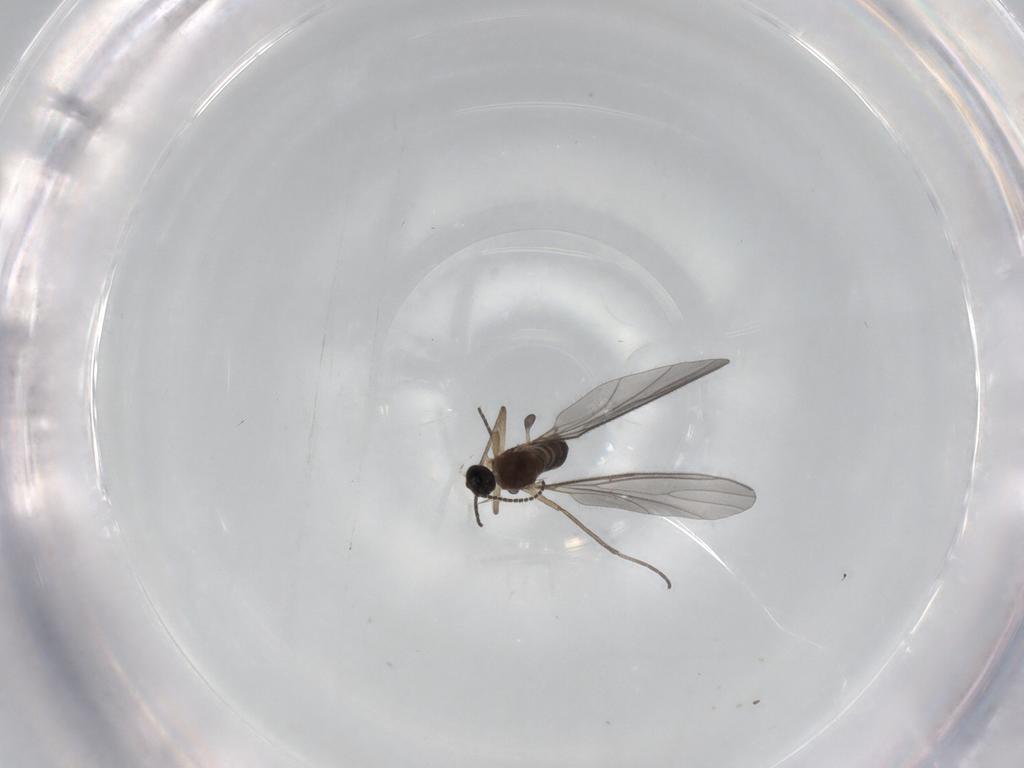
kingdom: Animalia
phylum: Arthropoda
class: Insecta
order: Diptera
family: Sciaridae
